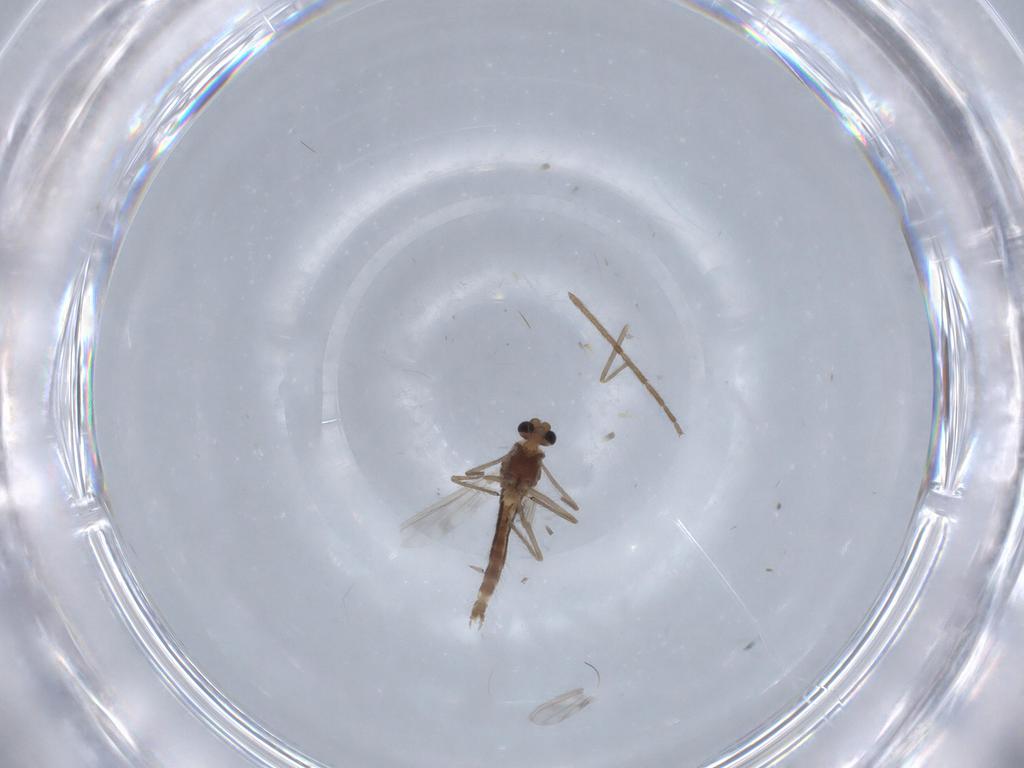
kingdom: Animalia
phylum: Arthropoda
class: Insecta
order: Diptera
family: Chironomidae
